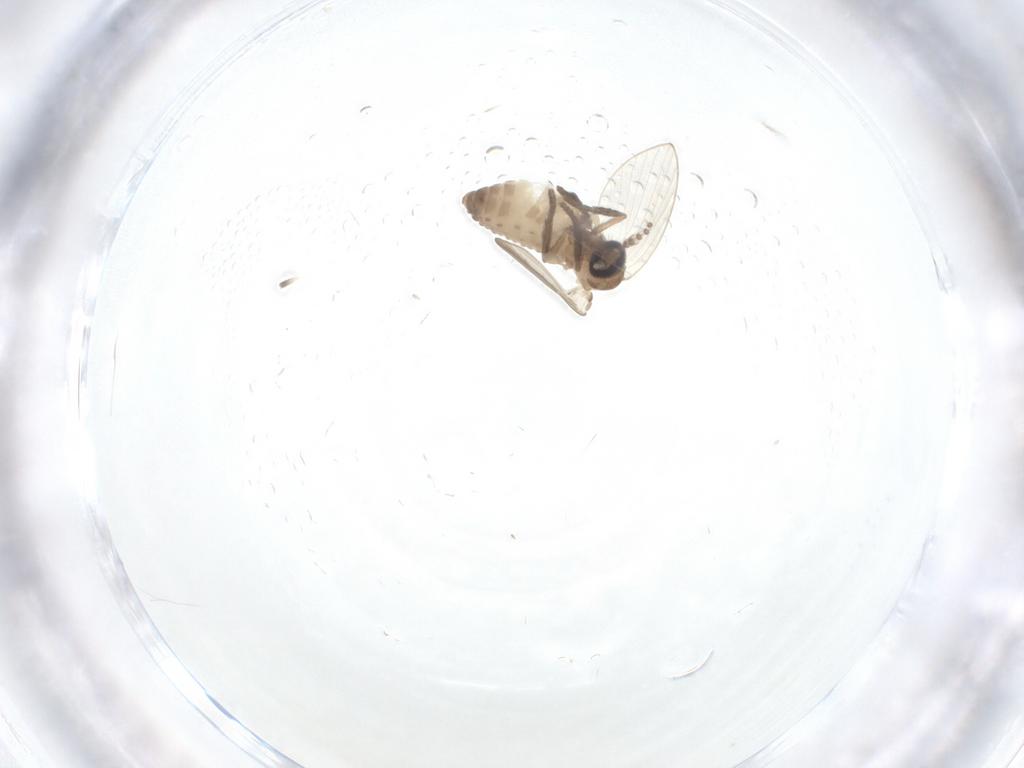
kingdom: Animalia
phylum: Arthropoda
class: Insecta
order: Diptera
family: Psychodidae
